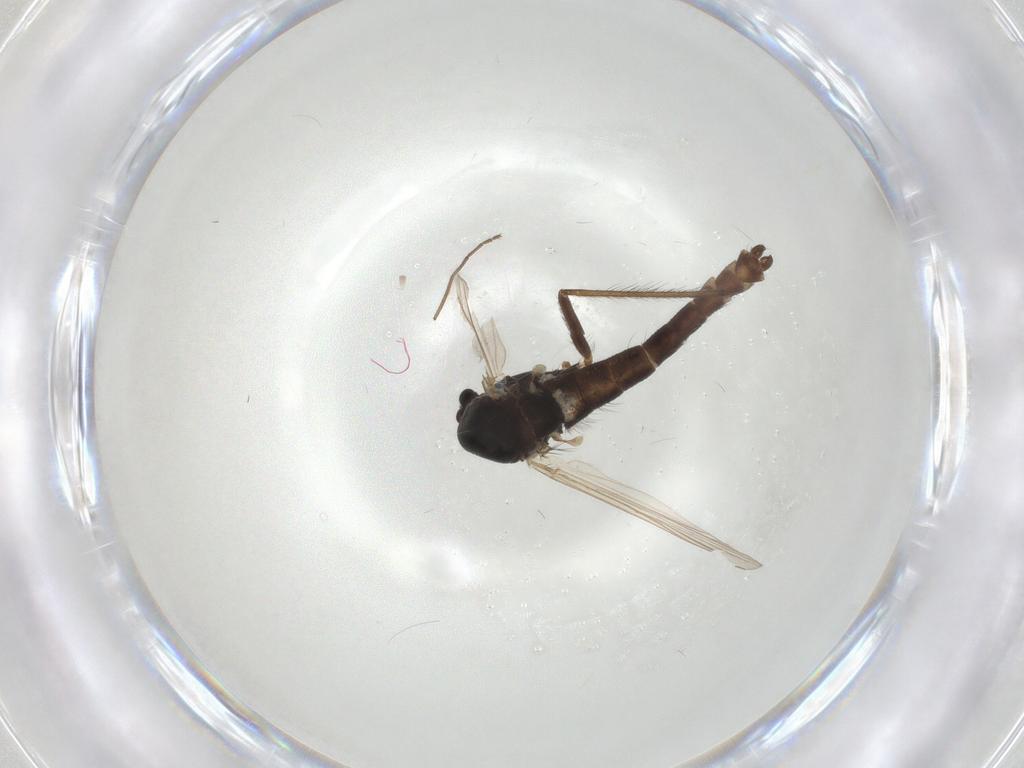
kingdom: Animalia
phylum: Arthropoda
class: Insecta
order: Diptera
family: Chironomidae
